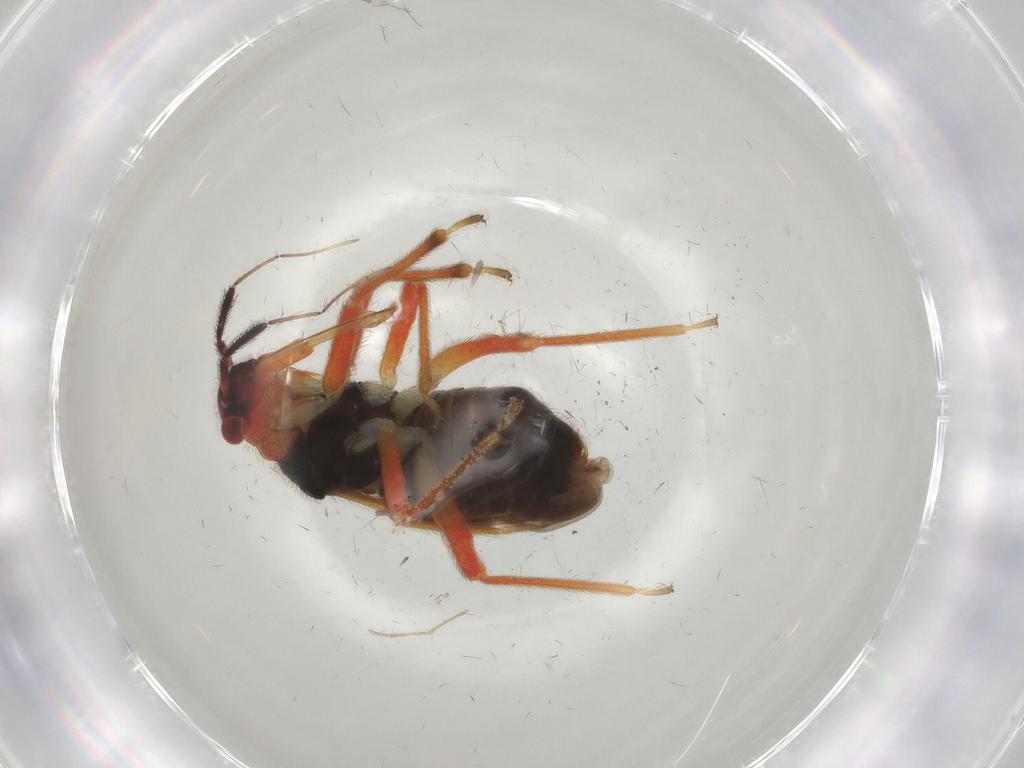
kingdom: Animalia
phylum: Arthropoda
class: Insecta
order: Hemiptera
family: Miridae
